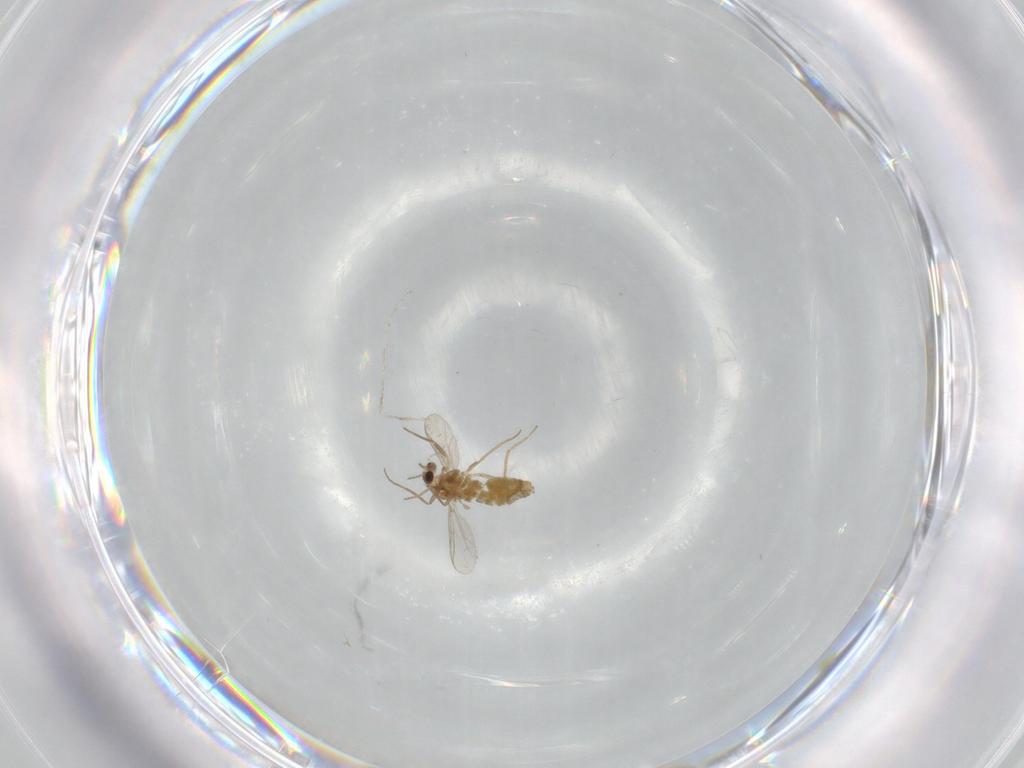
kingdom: Animalia
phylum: Arthropoda
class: Insecta
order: Diptera
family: Chironomidae
